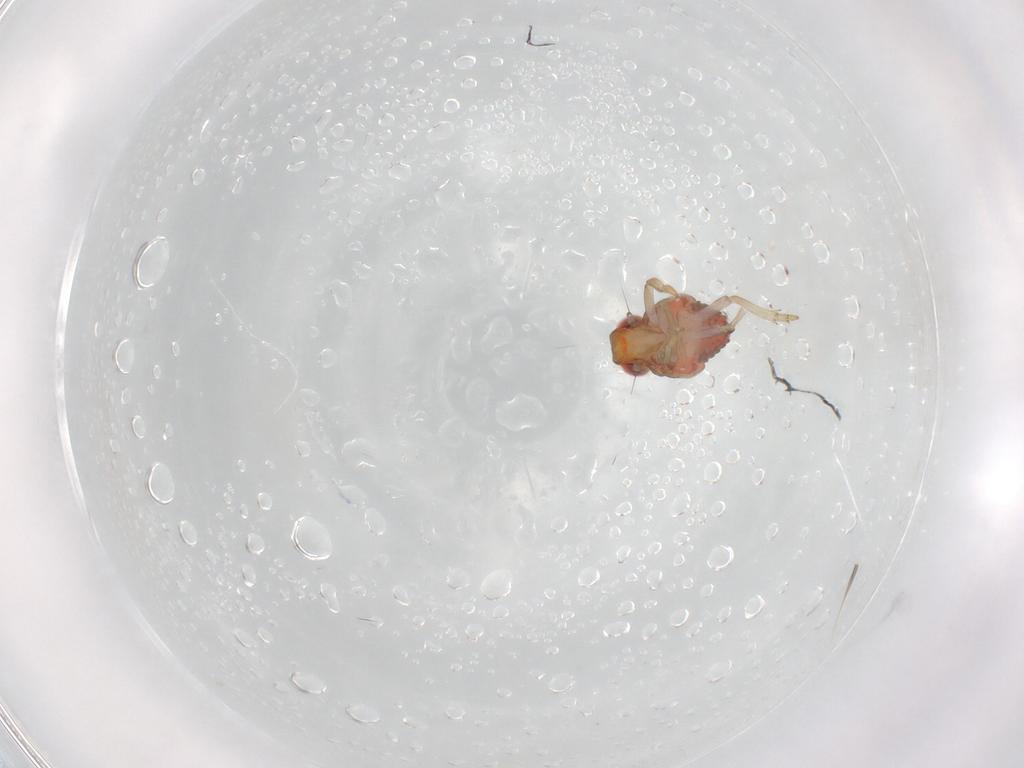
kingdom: Animalia
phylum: Arthropoda
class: Insecta
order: Hemiptera
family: Issidae
